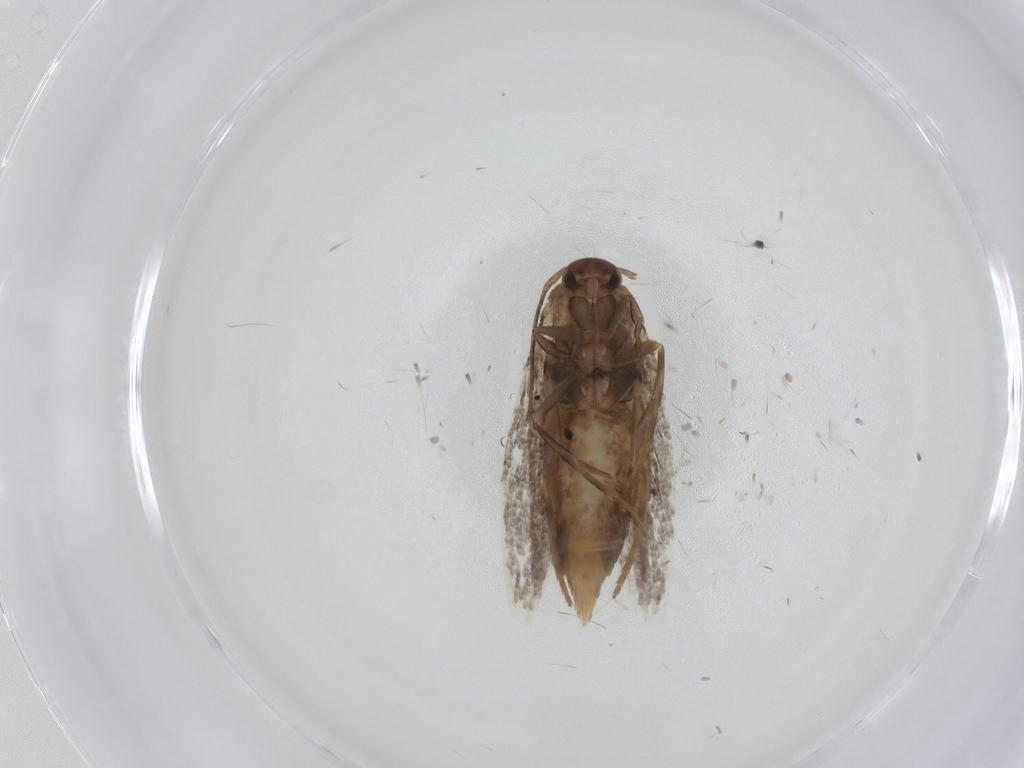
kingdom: Animalia
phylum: Arthropoda
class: Insecta
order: Lepidoptera
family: Elachistidae
